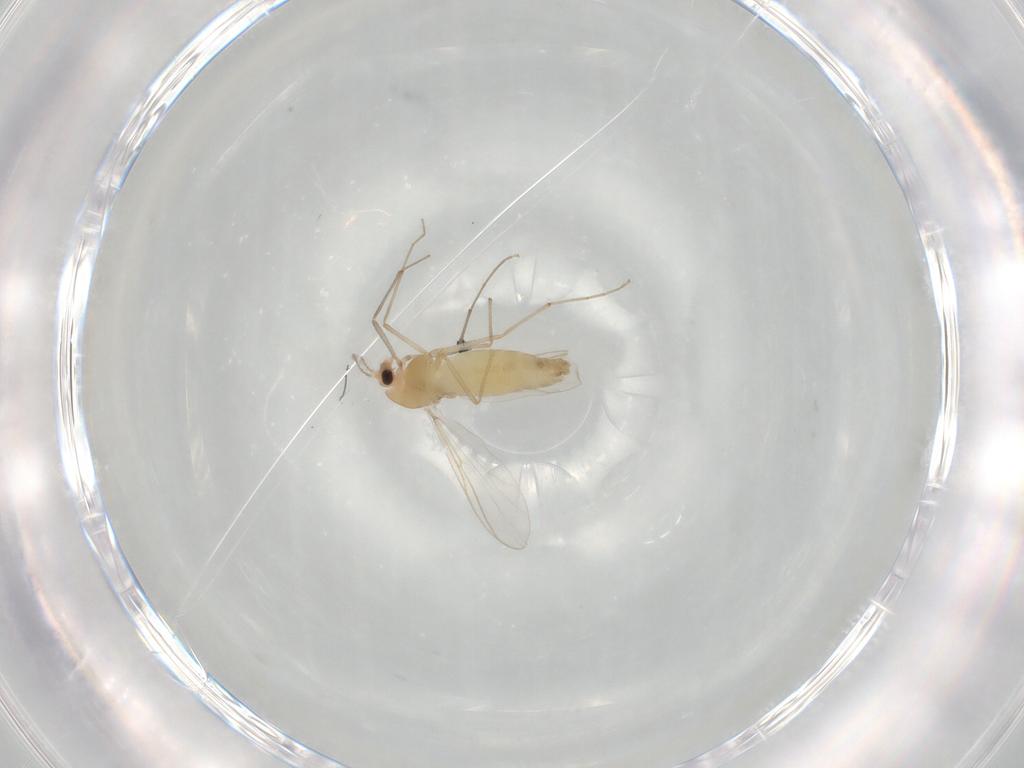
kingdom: Animalia
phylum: Arthropoda
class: Insecta
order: Diptera
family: Chironomidae
